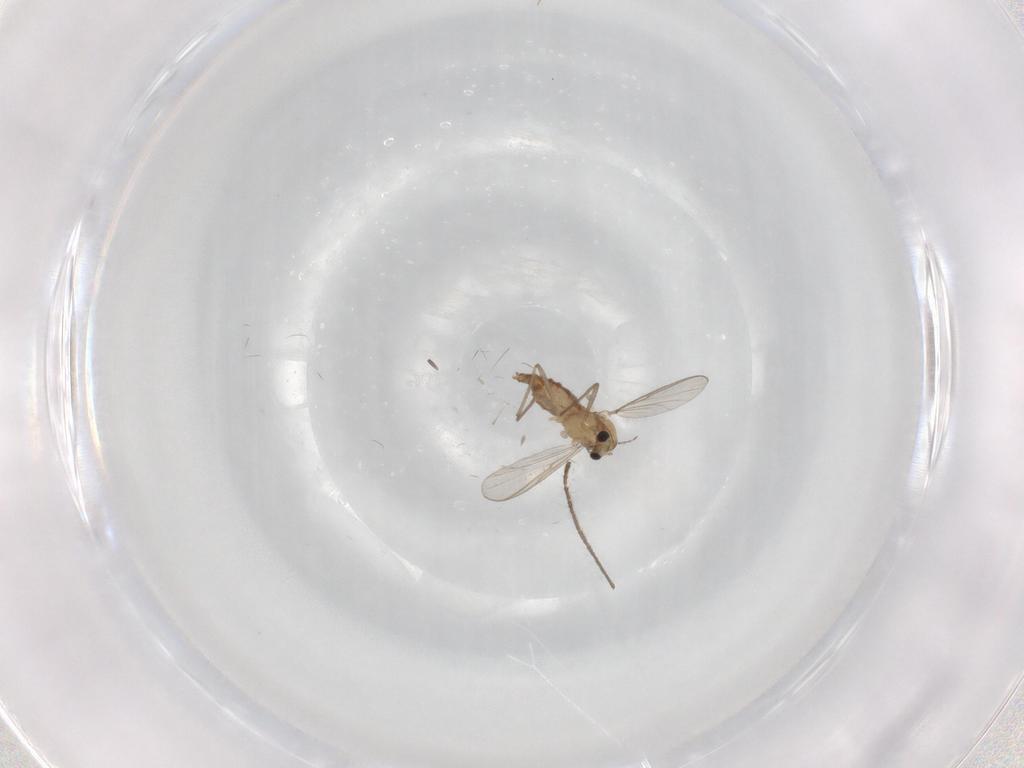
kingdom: Animalia
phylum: Arthropoda
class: Insecta
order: Diptera
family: Chironomidae
